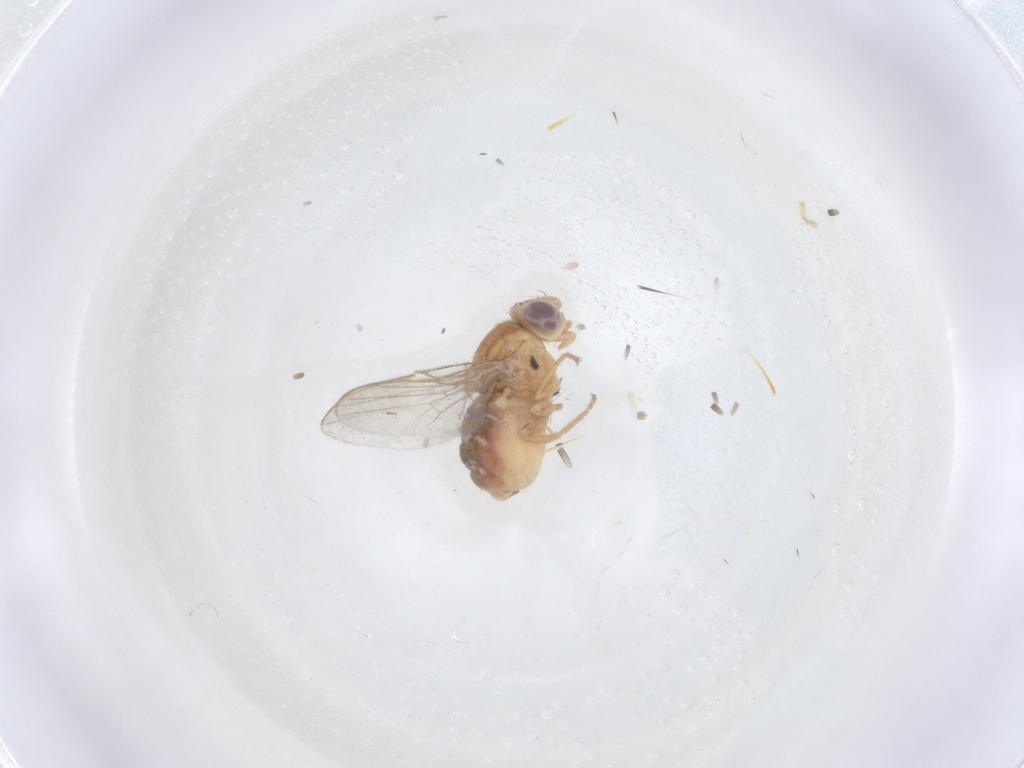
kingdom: Animalia
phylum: Arthropoda
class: Insecta
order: Diptera
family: Chloropidae
